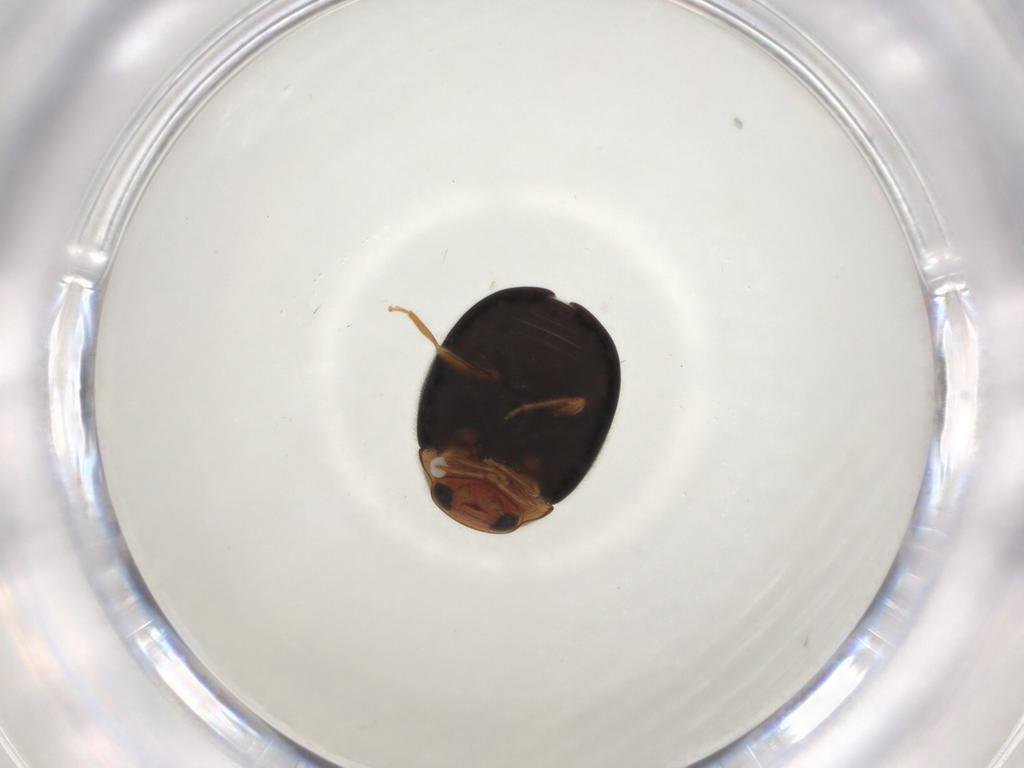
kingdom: Animalia
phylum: Arthropoda
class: Insecta
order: Coleoptera
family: Coccinellidae
